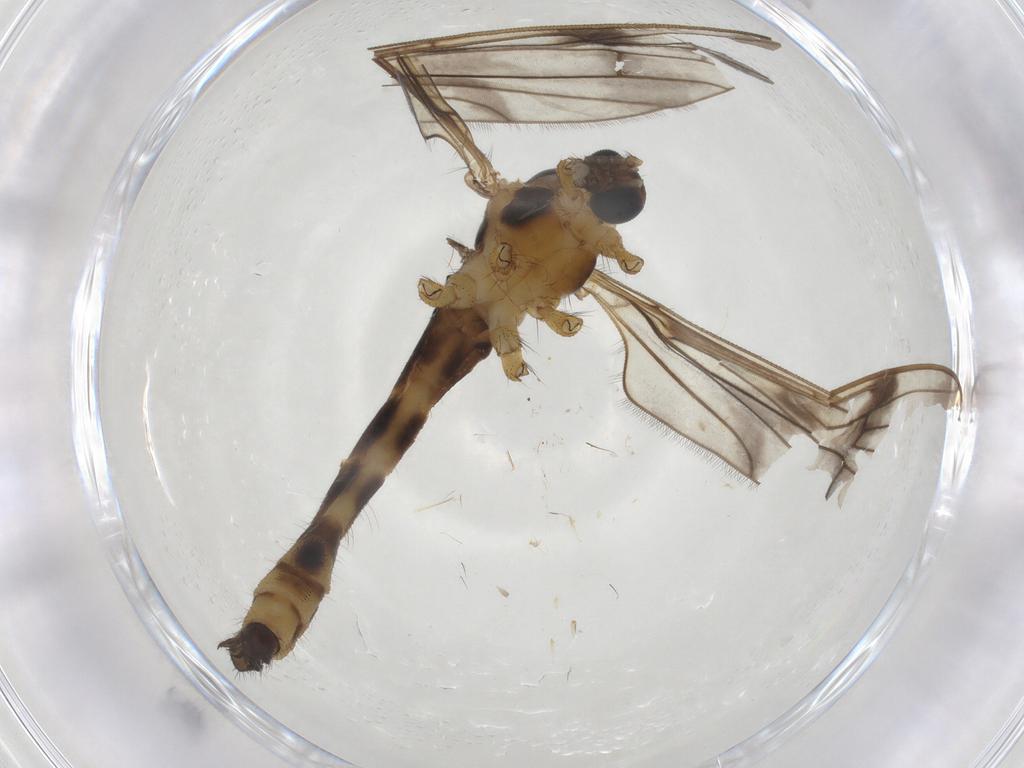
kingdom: Animalia
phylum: Arthropoda
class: Insecta
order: Diptera
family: Limoniidae
